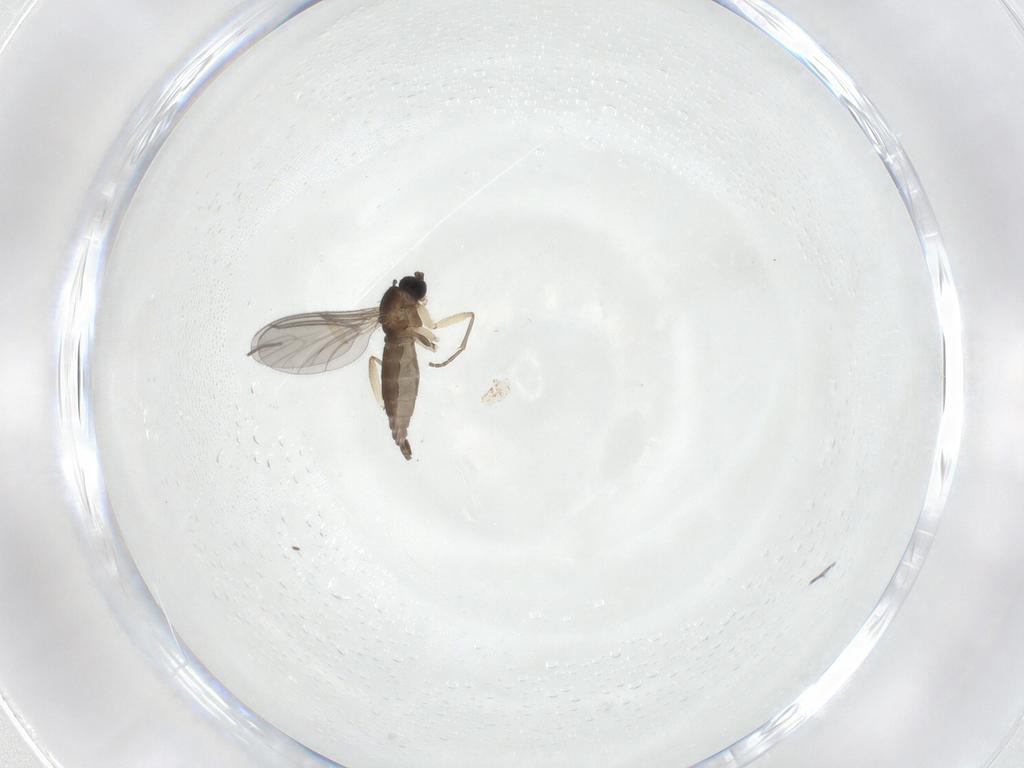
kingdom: Animalia
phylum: Arthropoda
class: Insecta
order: Diptera
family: Sciaridae
